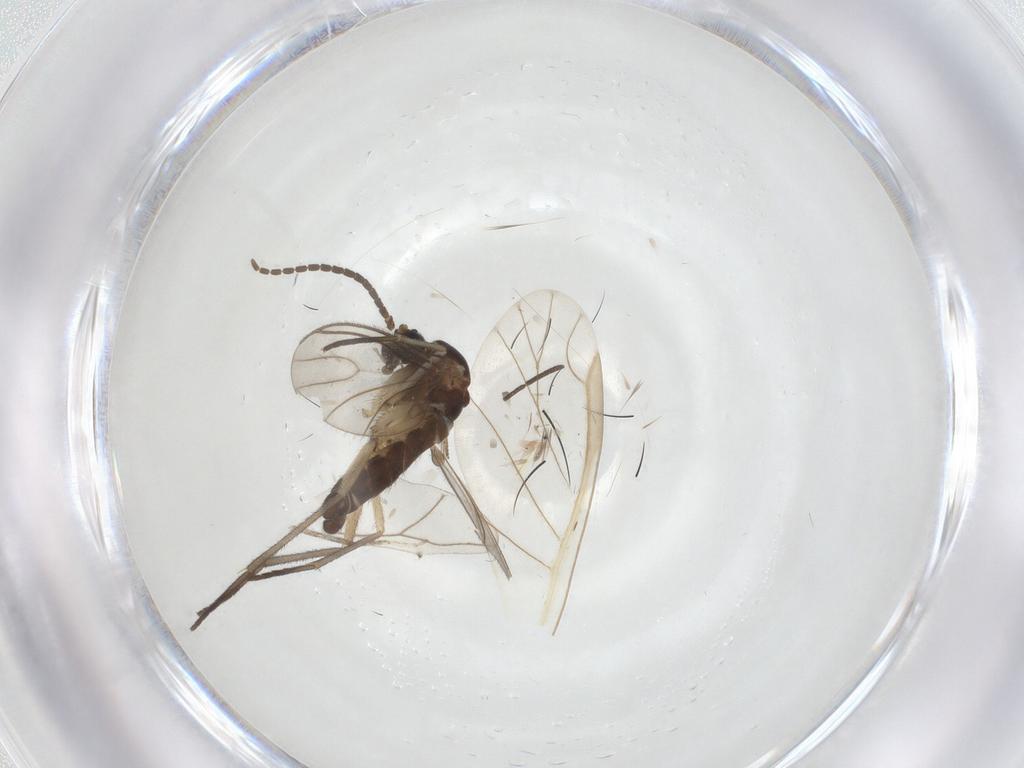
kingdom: Animalia
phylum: Arthropoda
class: Insecta
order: Diptera
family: Sciaridae
